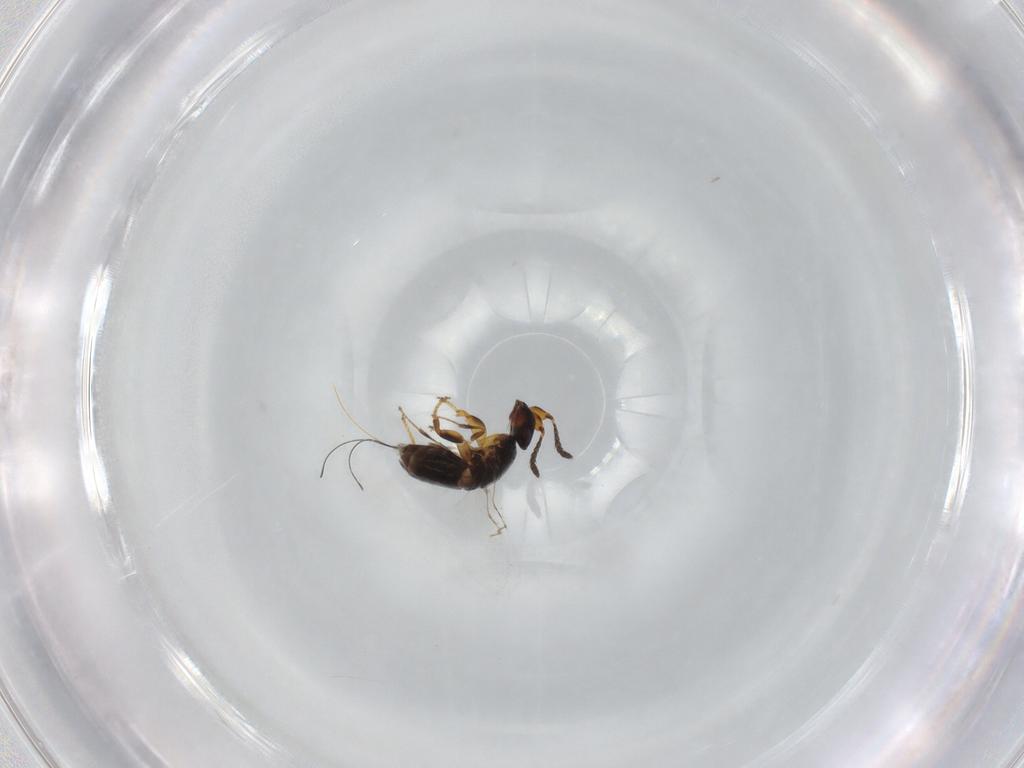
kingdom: Animalia
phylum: Arthropoda
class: Insecta
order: Hymenoptera
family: Agaonidae
